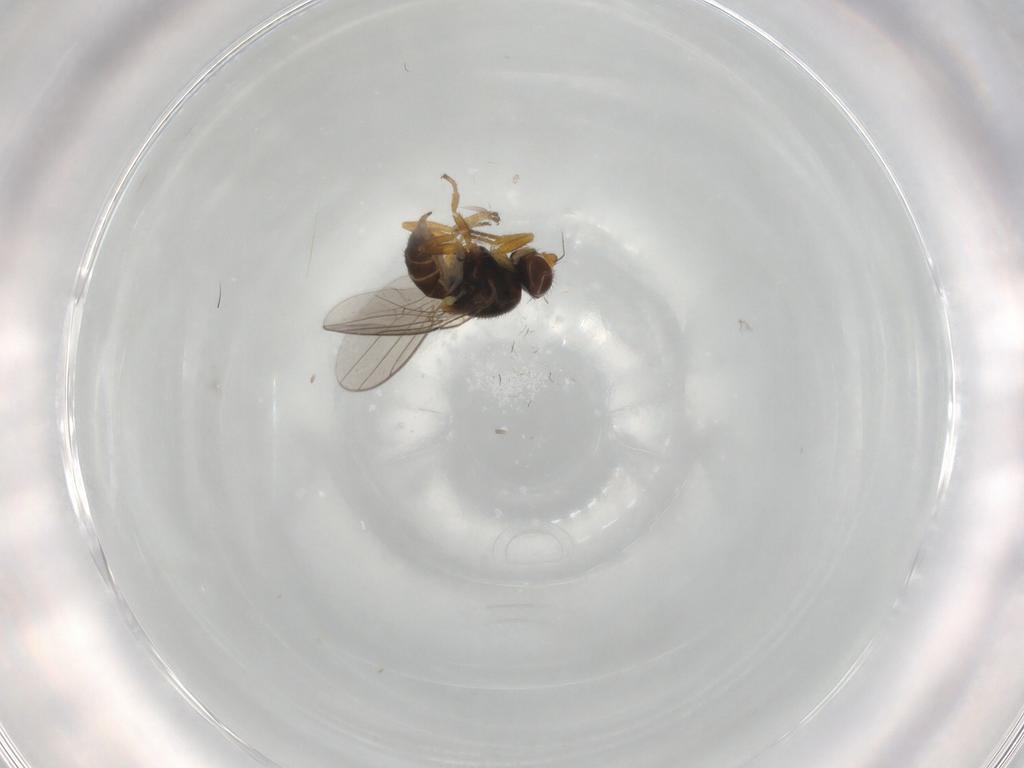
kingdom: Animalia
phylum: Arthropoda
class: Insecta
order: Diptera
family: Chloropidae
